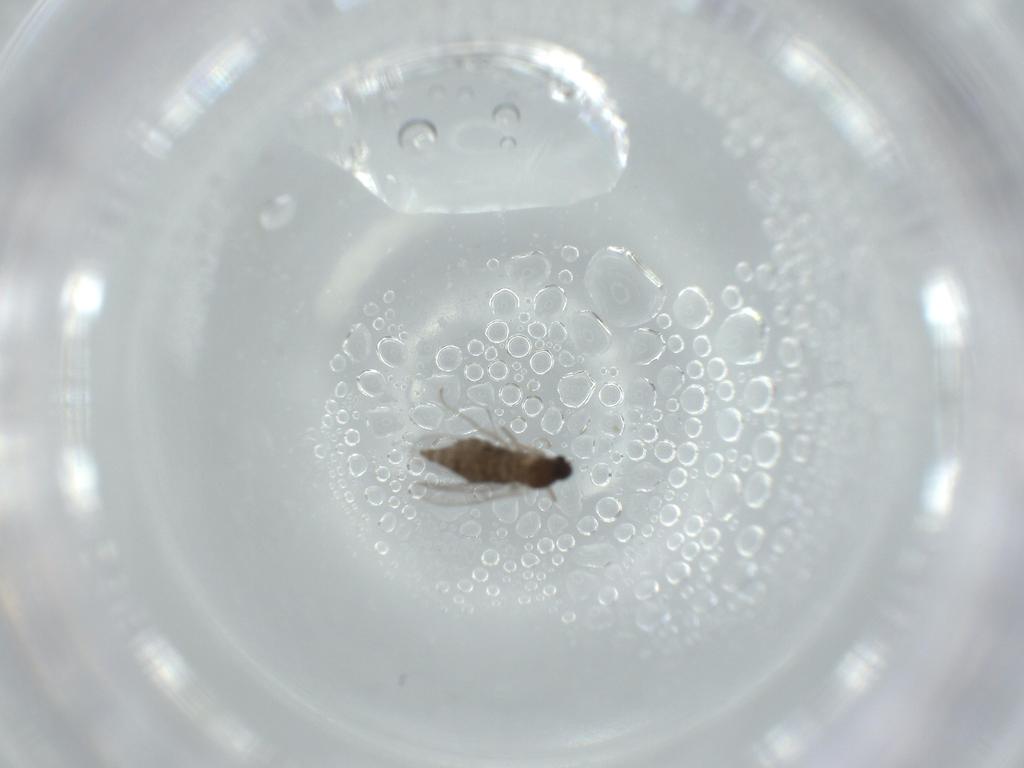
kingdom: Animalia
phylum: Arthropoda
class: Insecta
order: Diptera
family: Cecidomyiidae
